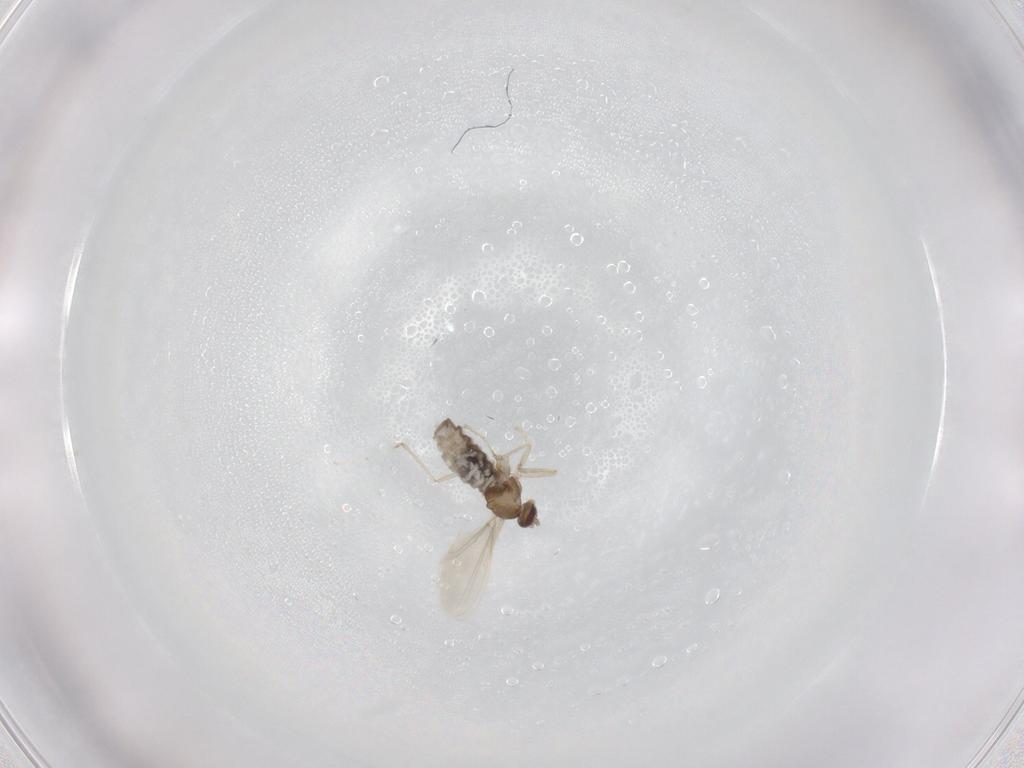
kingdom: Animalia
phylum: Arthropoda
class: Insecta
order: Diptera
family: Cecidomyiidae
